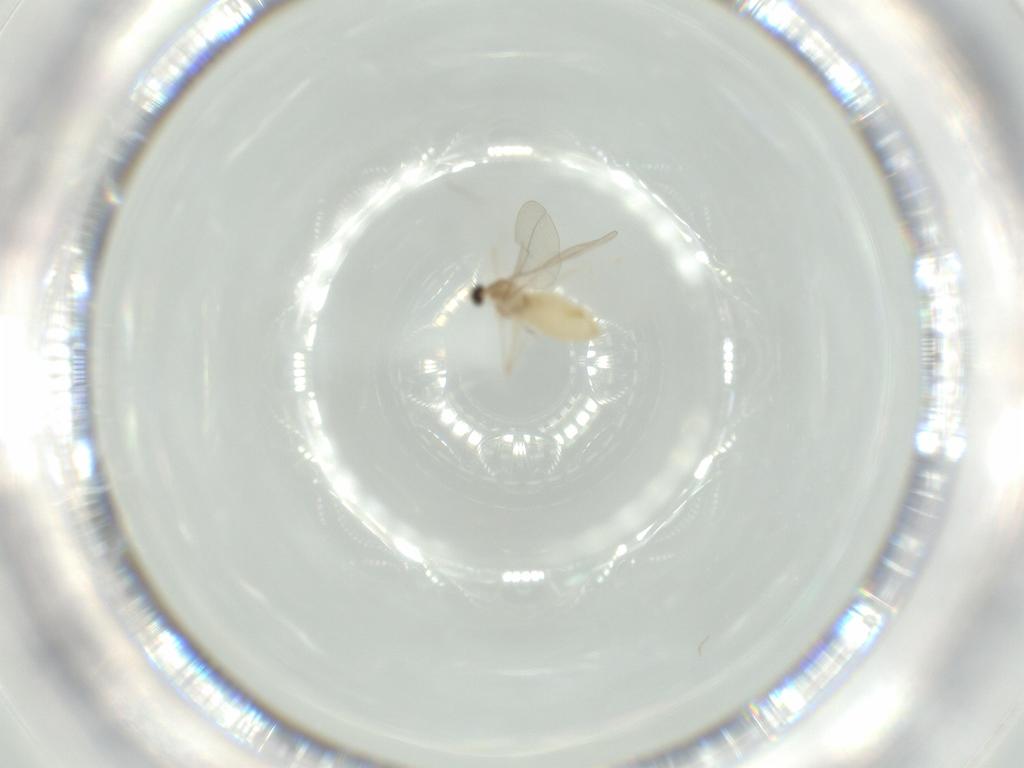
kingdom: Animalia
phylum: Arthropoda
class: Insecta
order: Diptera
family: Cecidomyiidae
